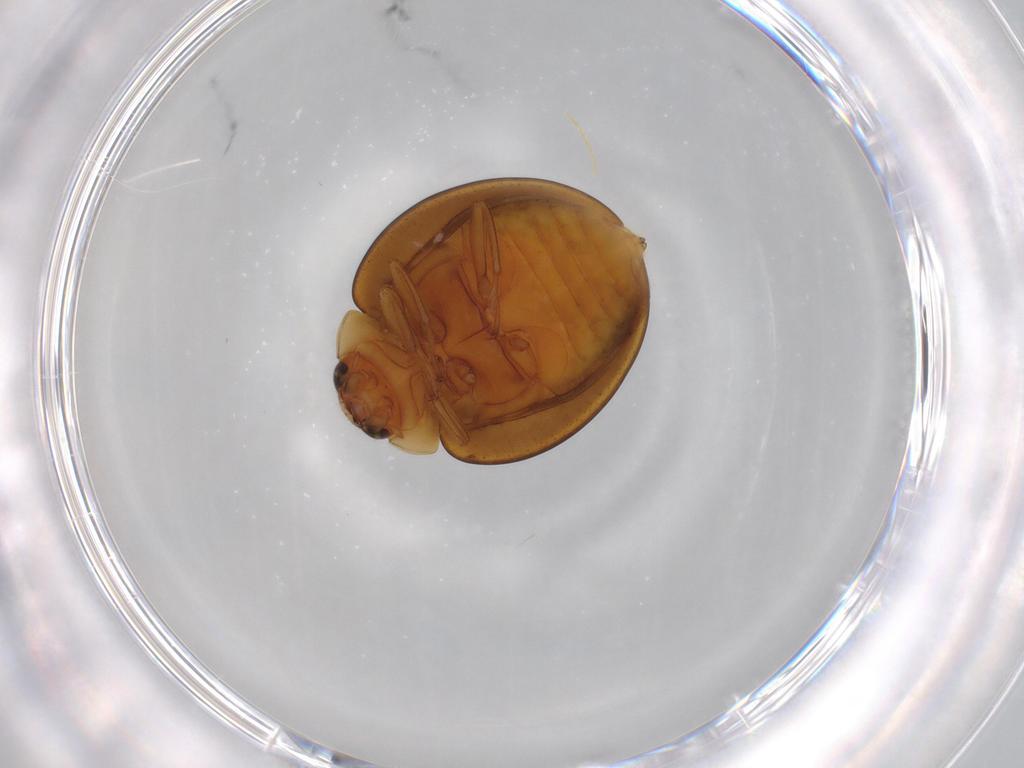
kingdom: Animalia
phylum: Arthropoda
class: Insecta
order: Coleoptera
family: Coccinellidae
